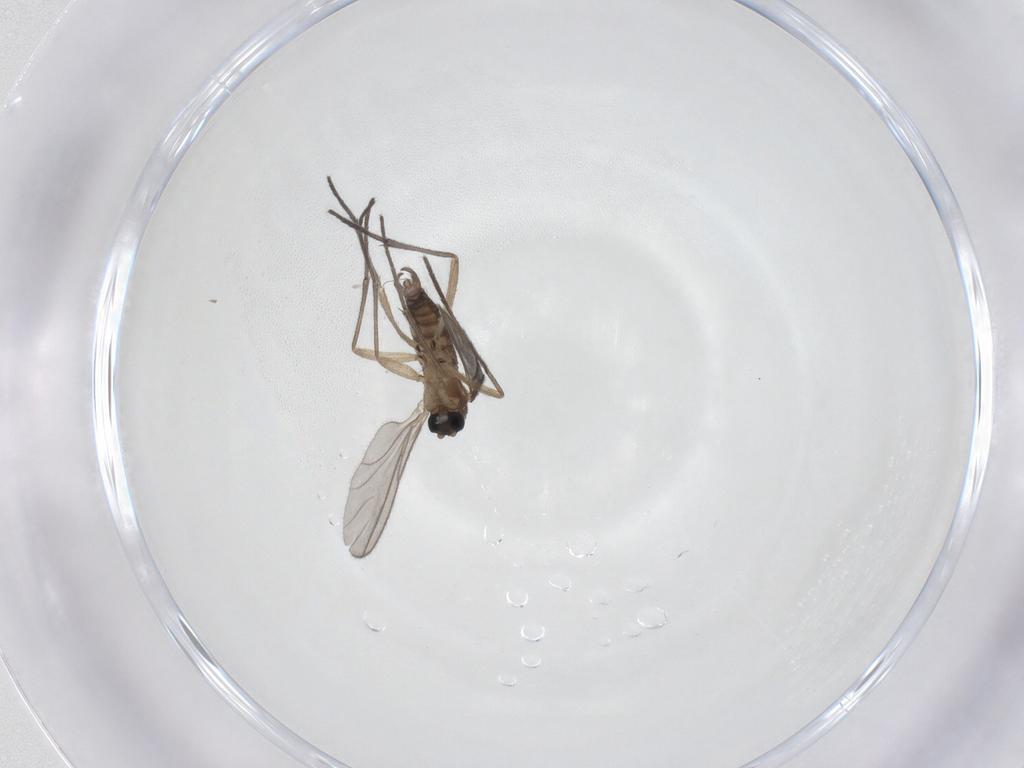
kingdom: Animalia
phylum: Arthropoda
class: Insecta
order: Diptera
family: Sciaridae
